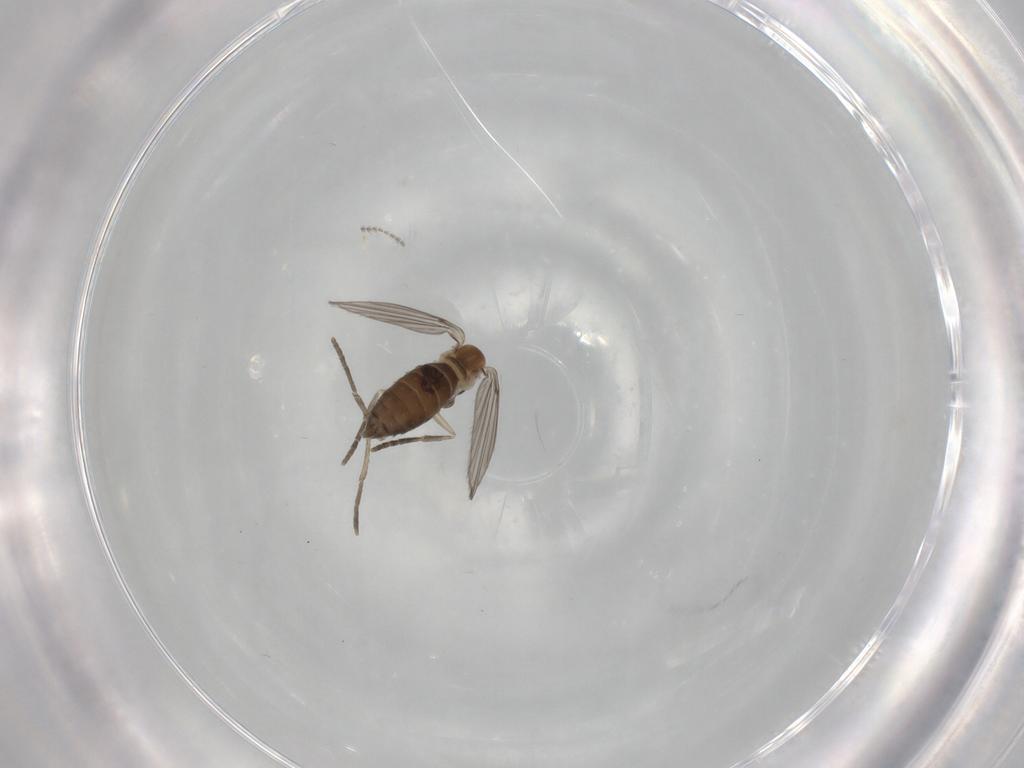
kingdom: Animalia
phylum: Arthropoda
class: Insecta
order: Diptera
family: Psychodidae
